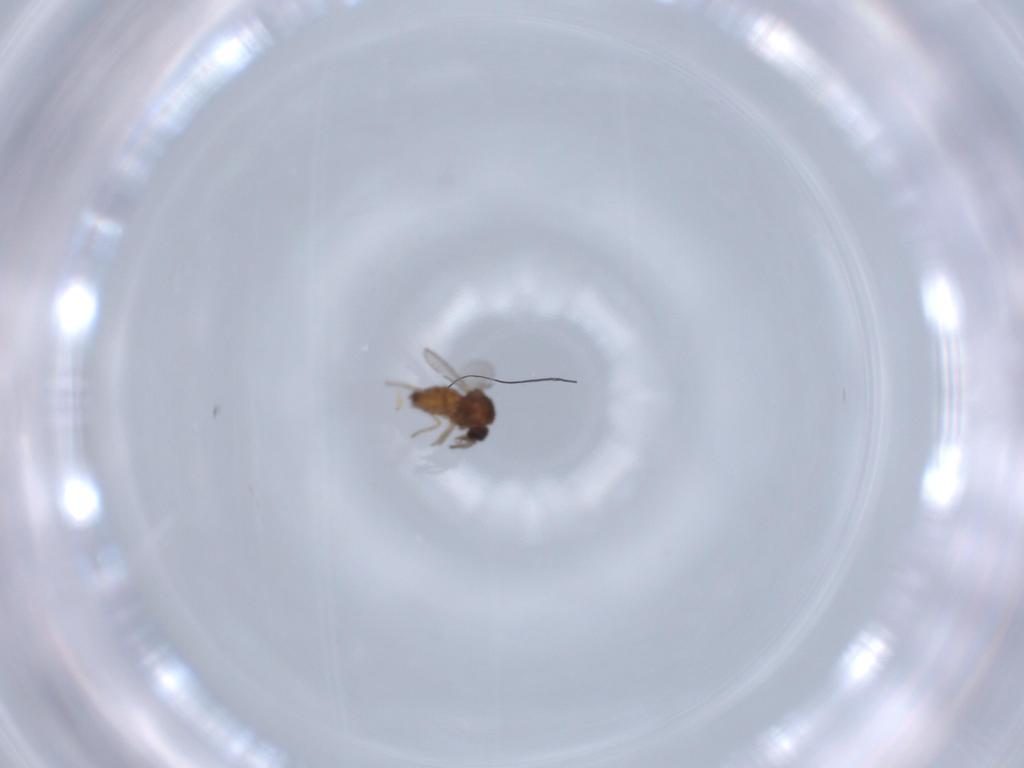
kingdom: Animalia
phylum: Arthropoda
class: Insecta
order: Diptera
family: Ceratopogonidae
